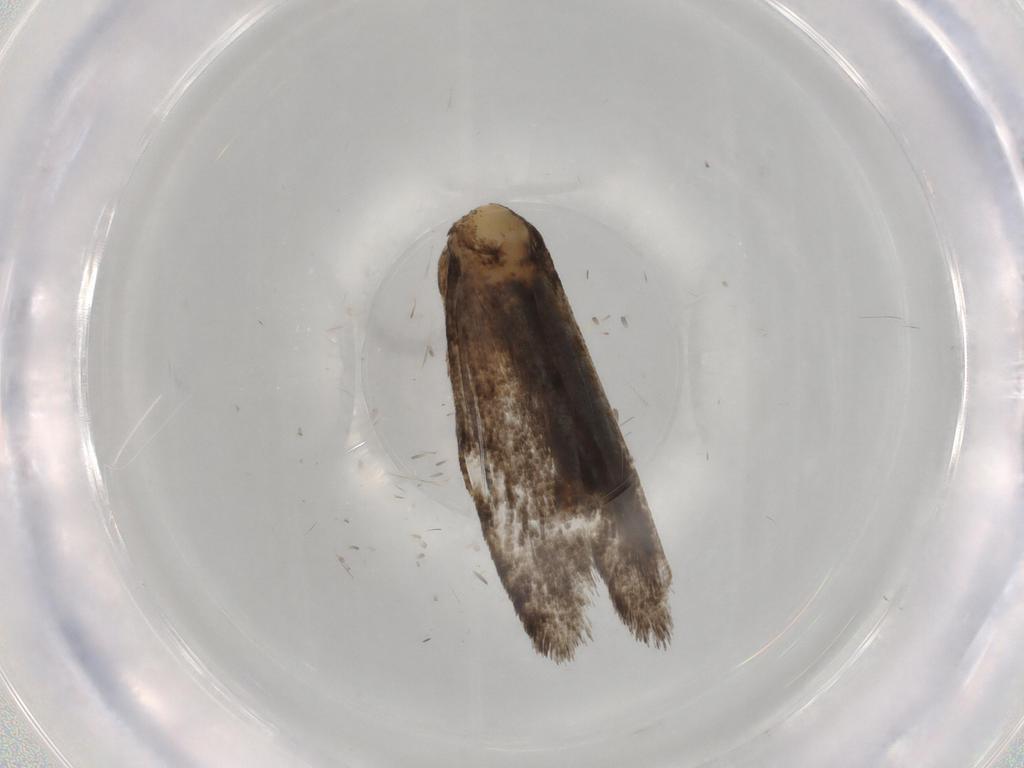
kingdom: Animalia
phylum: Arthropoda
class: Insecta
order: Lepidoptera
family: Tineidae
